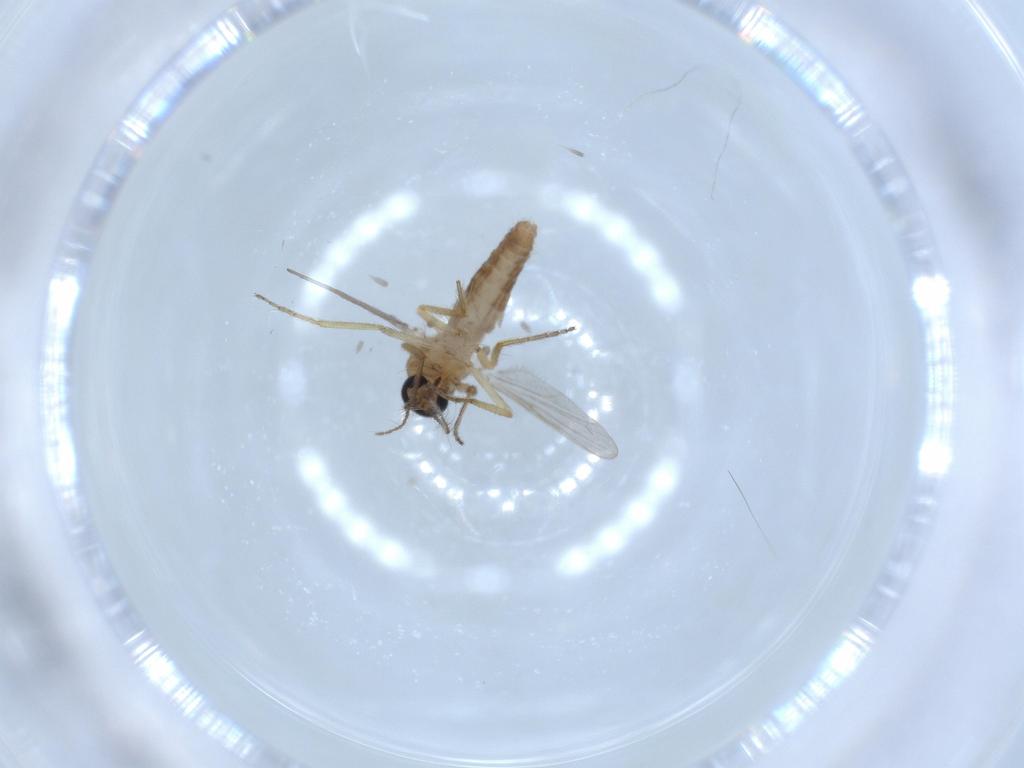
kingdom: Animalia
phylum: Arthropoda
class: Insecta
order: Diptera
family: Ceratopogonidae
